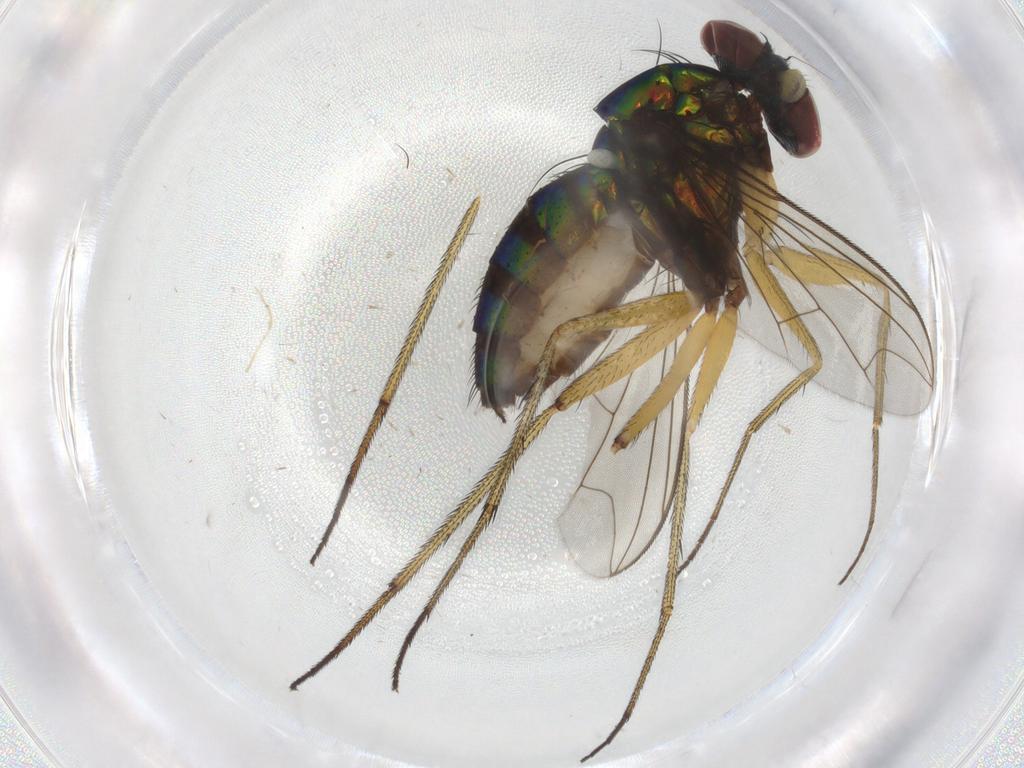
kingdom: Animalia
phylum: Arthropoda
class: Insecta
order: Diptera
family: Dolichopodidae
